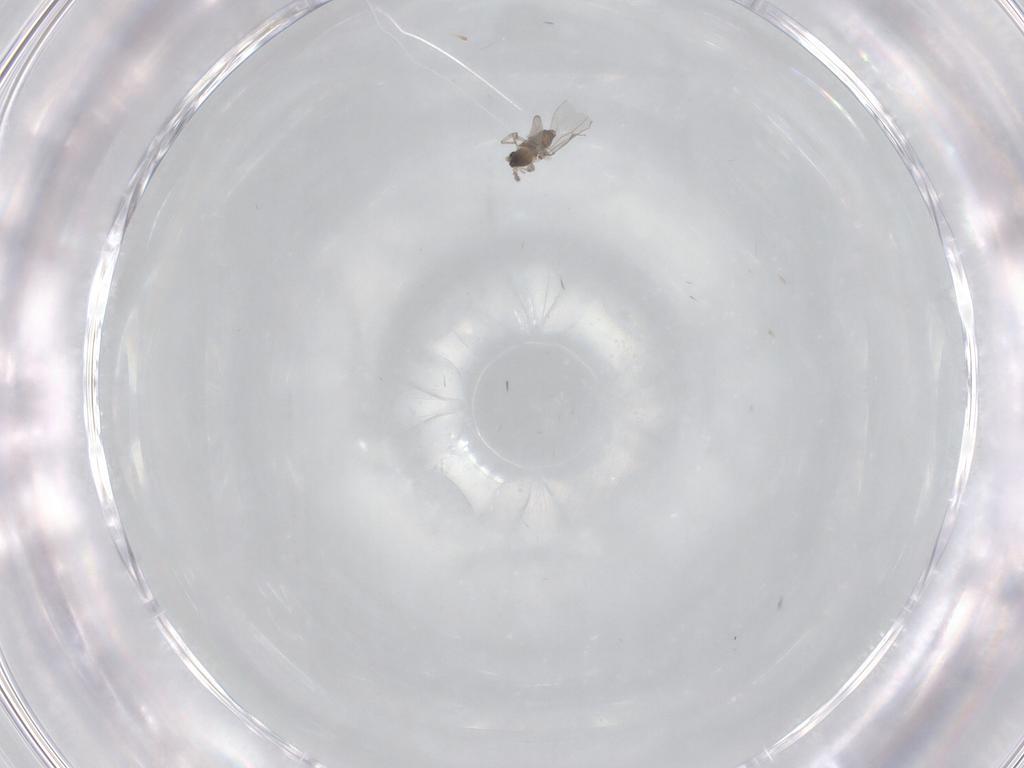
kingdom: Animalia
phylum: Arthropoda
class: Insecta
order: Diptera
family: Cecidomyiidae
